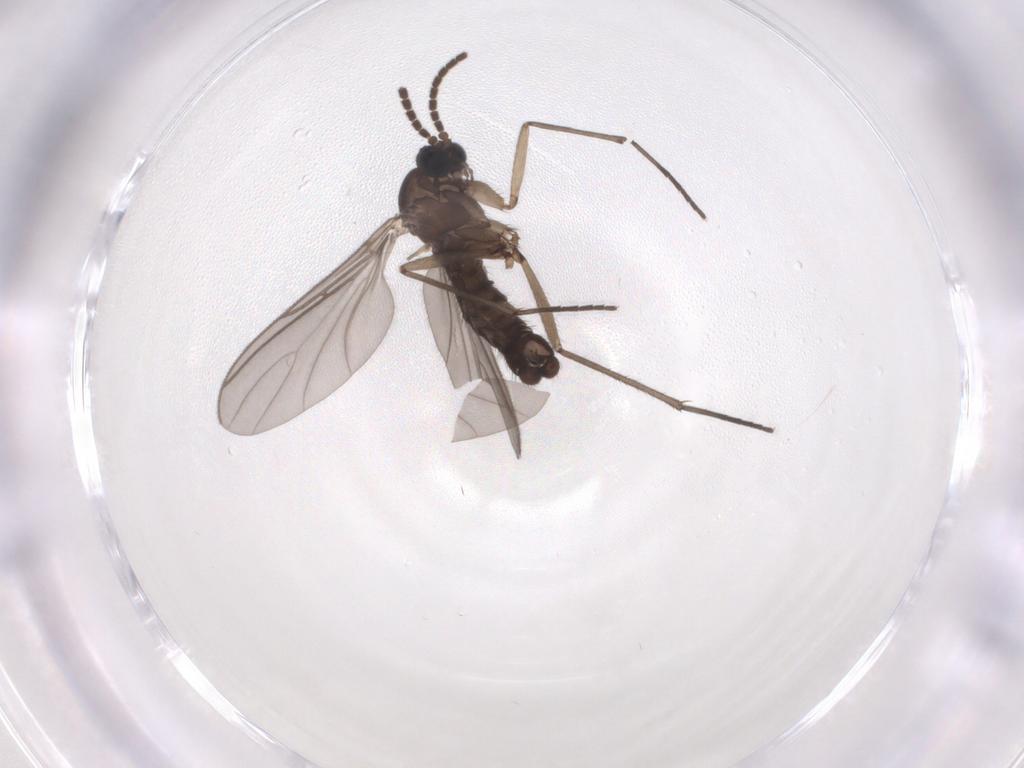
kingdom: Animalia
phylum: Arthropoda
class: Insecta
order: Diptera
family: Sciaridae
